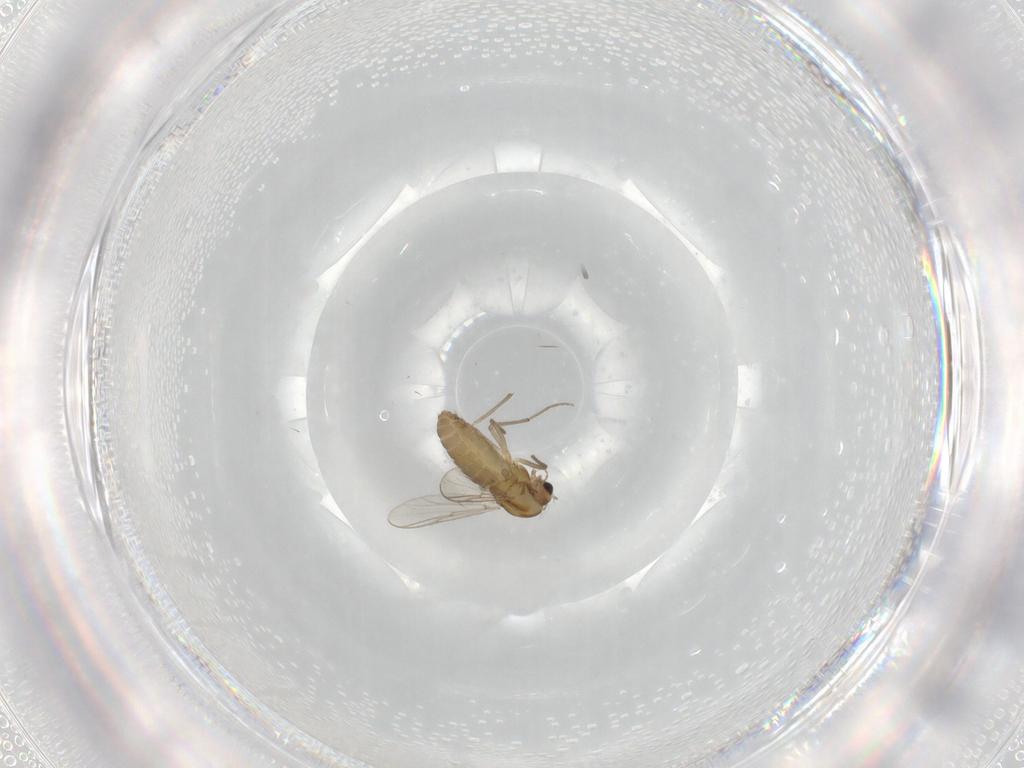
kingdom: Animalia
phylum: Arthropoda
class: Insecta
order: Diptera
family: Chironomidae
